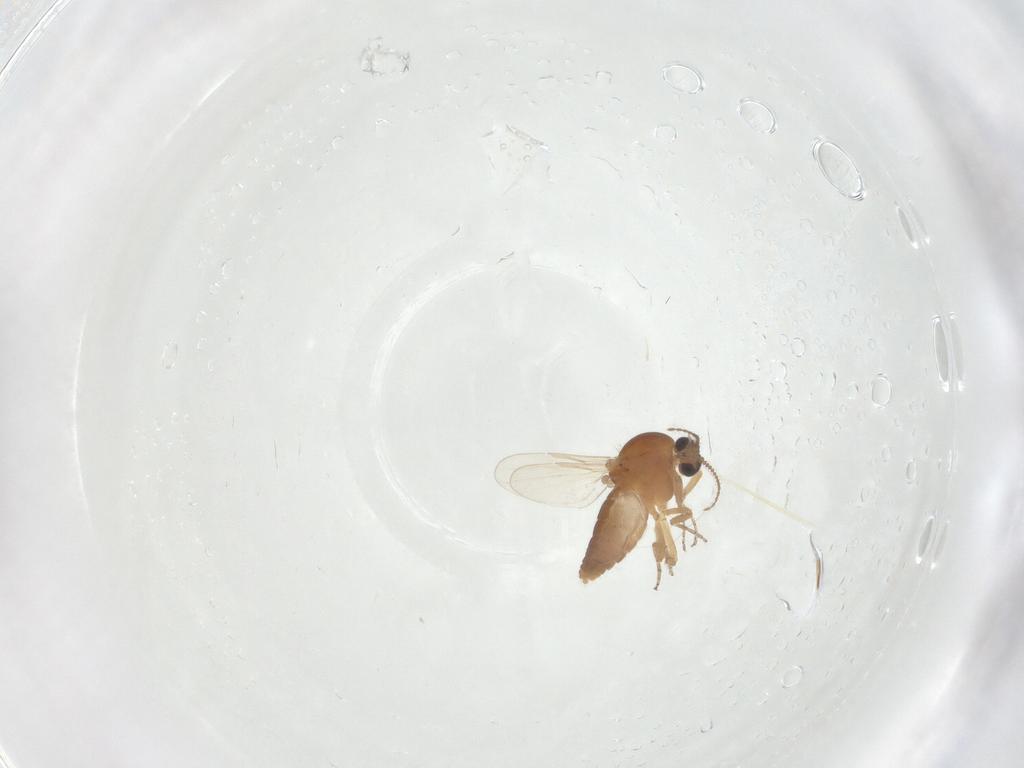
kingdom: Animalia
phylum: Arthropoda
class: Insecta
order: Diptera
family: Ceratopogonidae
